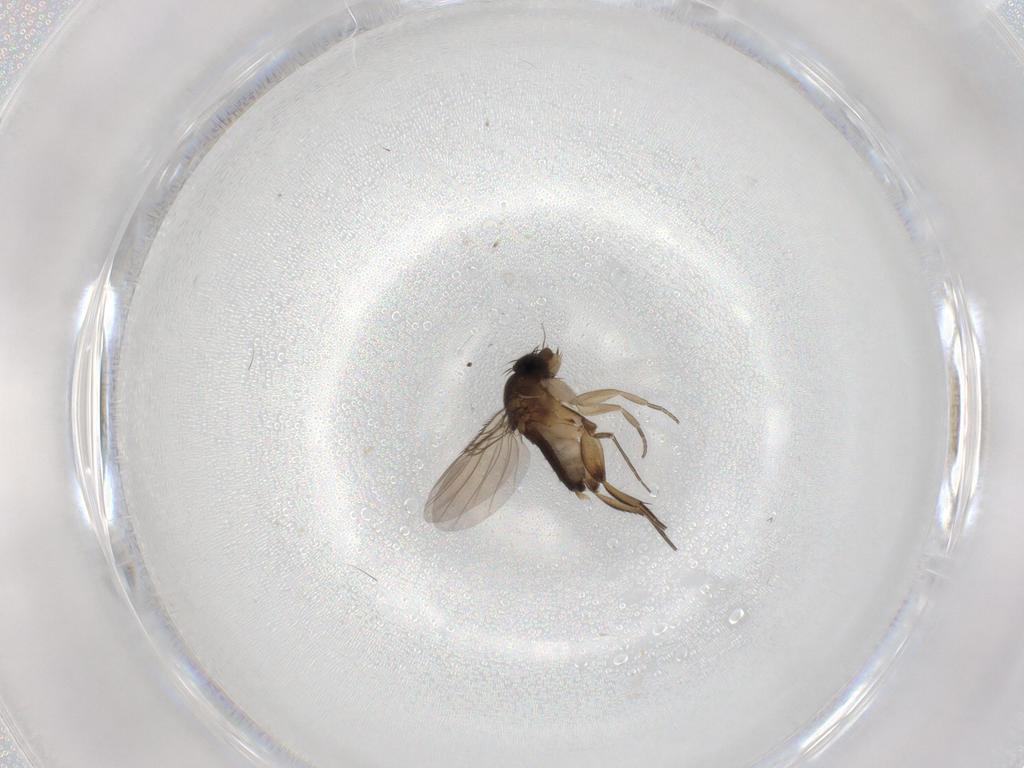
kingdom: Animalia
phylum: Arthropoda
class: Insecta
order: Diptera
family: Phoridae
